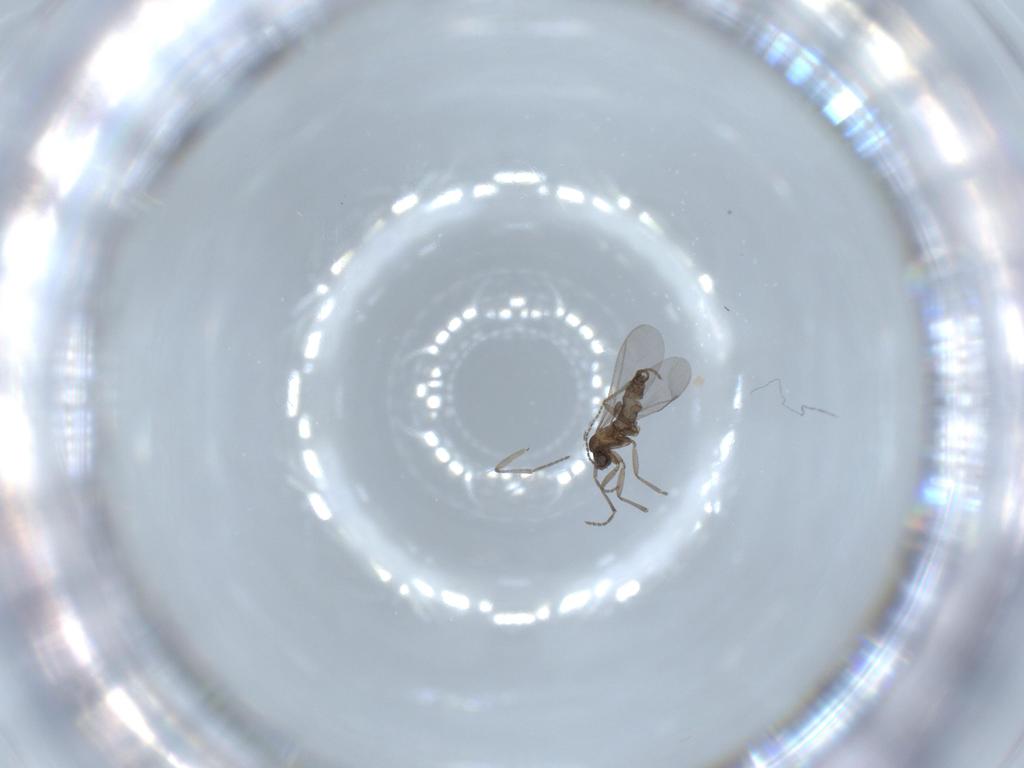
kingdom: Animalia
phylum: Arthropoda
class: Insecta
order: Diptera
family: Sciaridae
